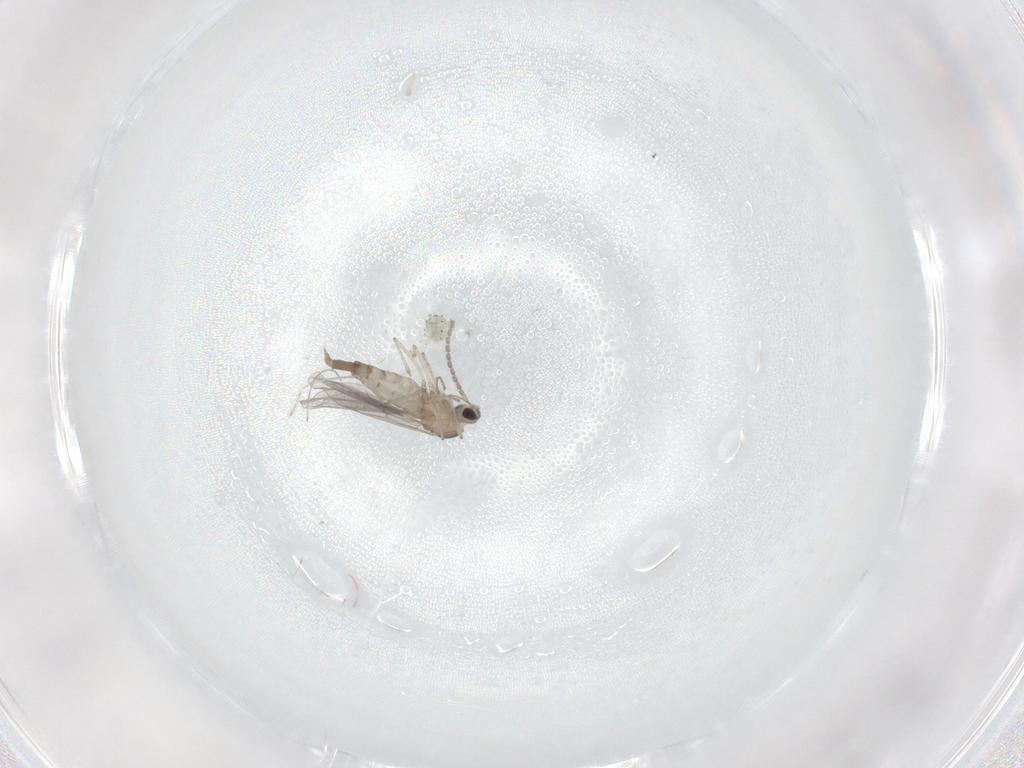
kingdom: Animalia
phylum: Arthropoda
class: Insecta
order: Diptera
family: Cecidomyiidae
